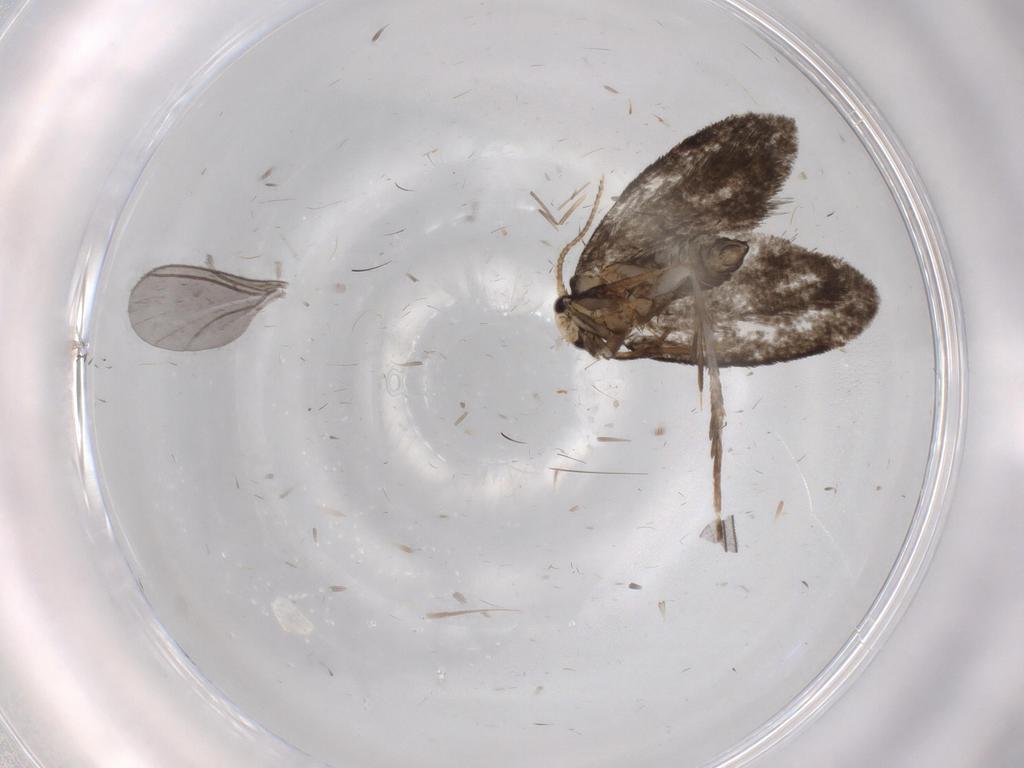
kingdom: Animalia
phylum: Arthropoda
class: Insecta
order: Lepidoptera
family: Psychidae
